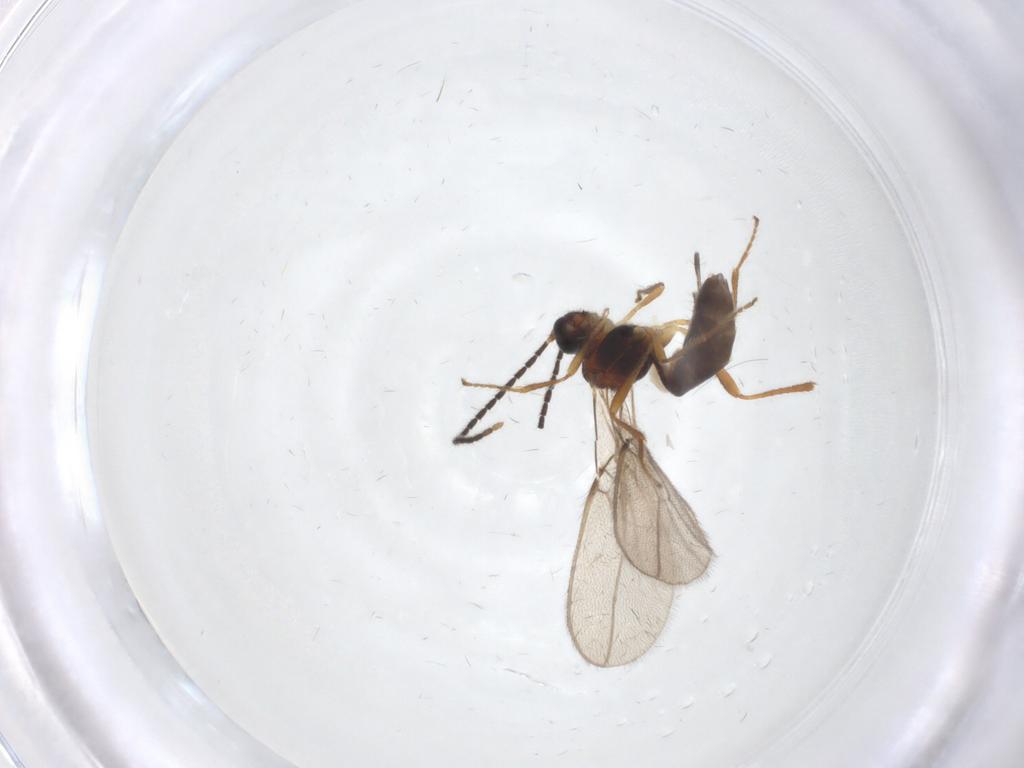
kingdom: Animalia
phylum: Arthropoda
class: Insecta
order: Hymenoptera
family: Braconidae
